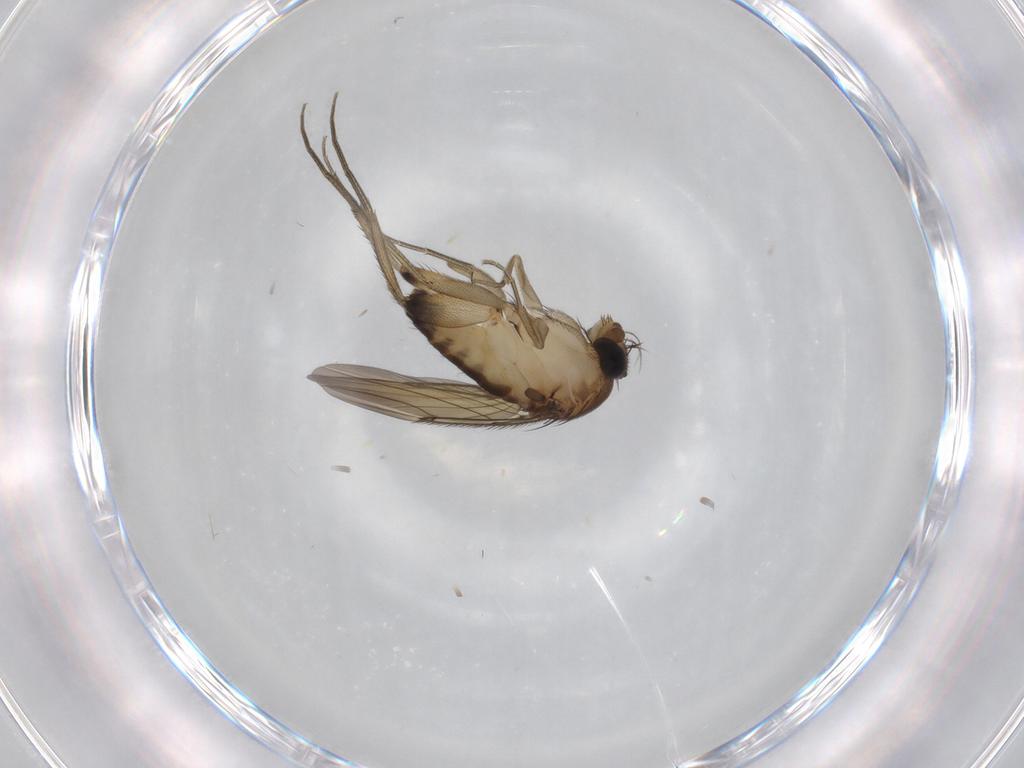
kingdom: Animalia
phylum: Arthropoda
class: Insecta
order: Diptera
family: Phoridae
